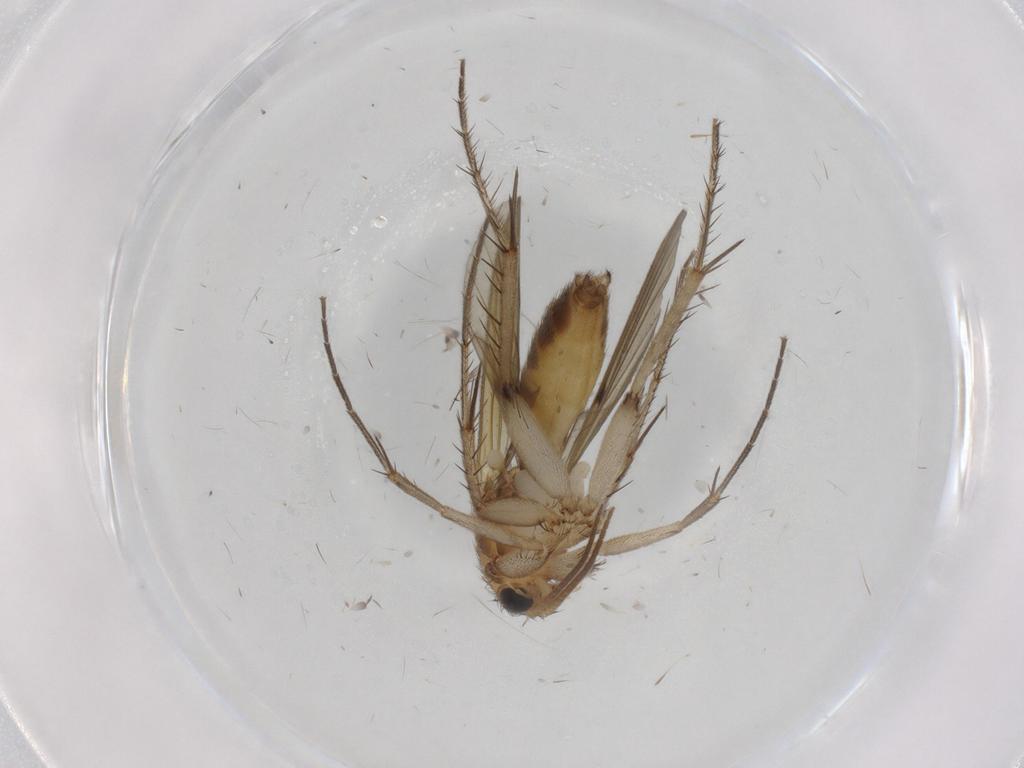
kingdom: Animalia
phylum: Arthropoda
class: Insecta
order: Diptera
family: Mycetophilidae
